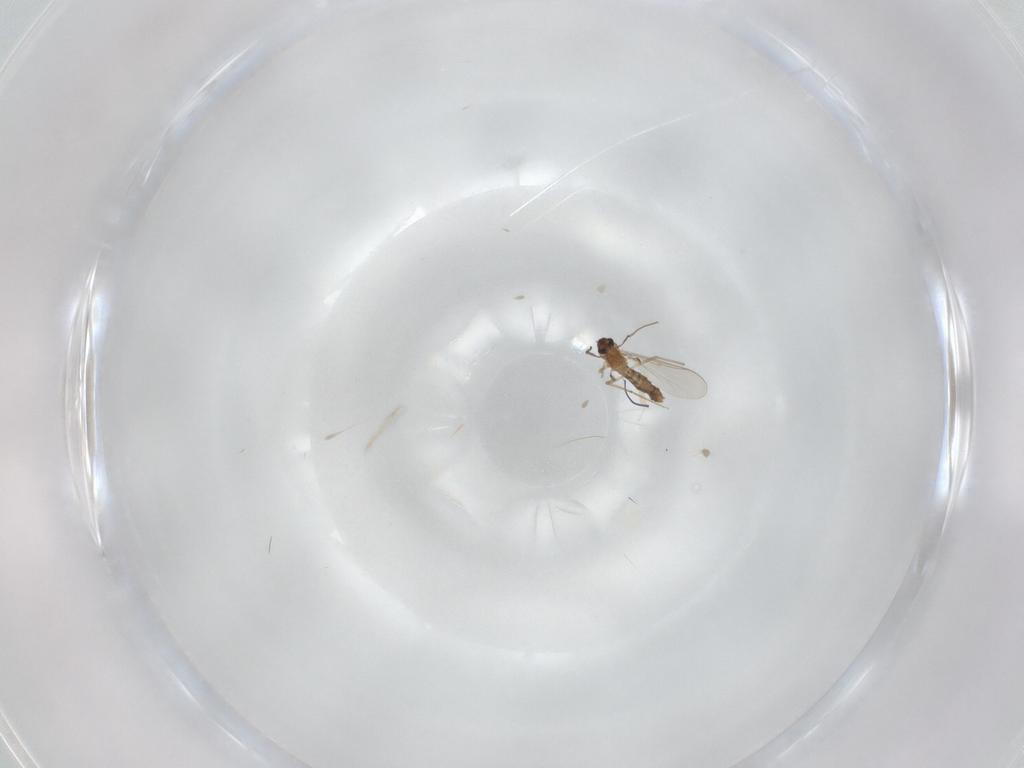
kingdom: Animalia
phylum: Arthropoda
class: Insecta
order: Diptera
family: Chironomidae
